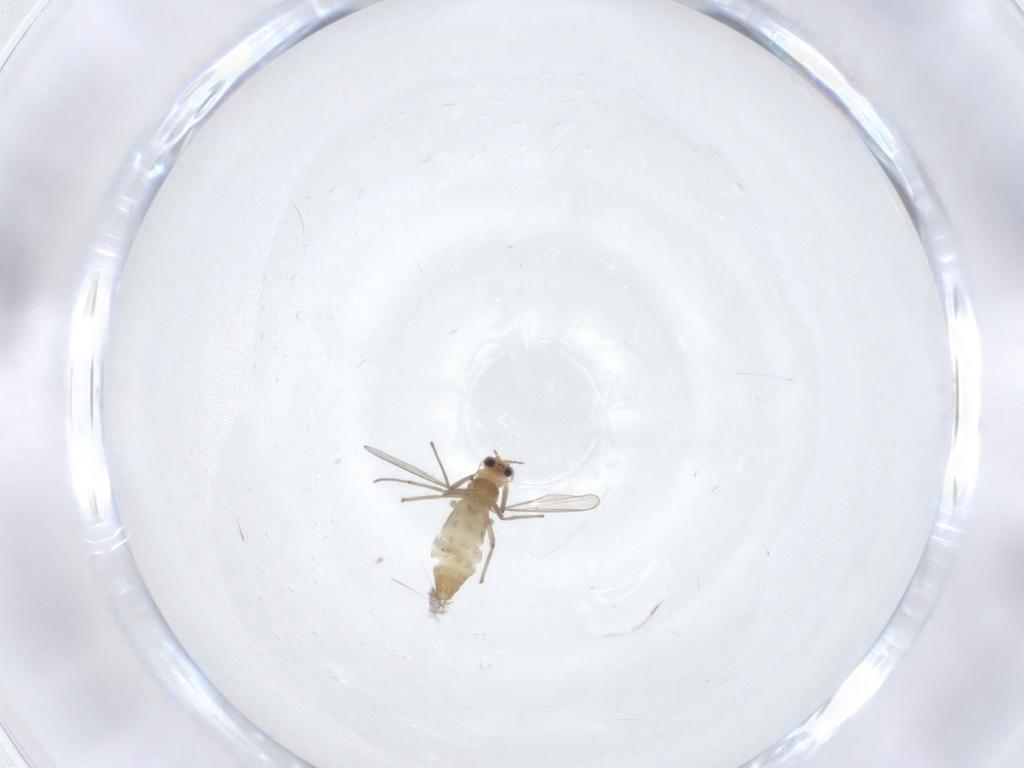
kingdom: Animalia
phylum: Arthropoda
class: Insecta
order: Diptera
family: Chironomidae
